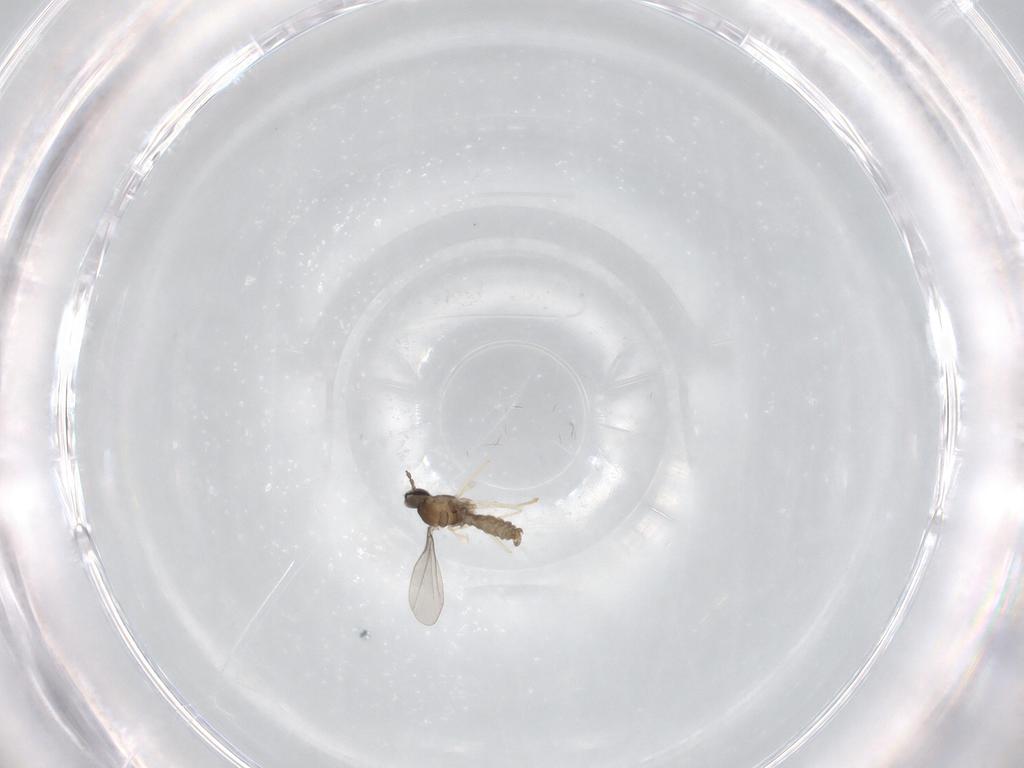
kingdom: Animalia
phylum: Arthropoda
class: Insecta
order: Diptera
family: Cecidomyiidae
